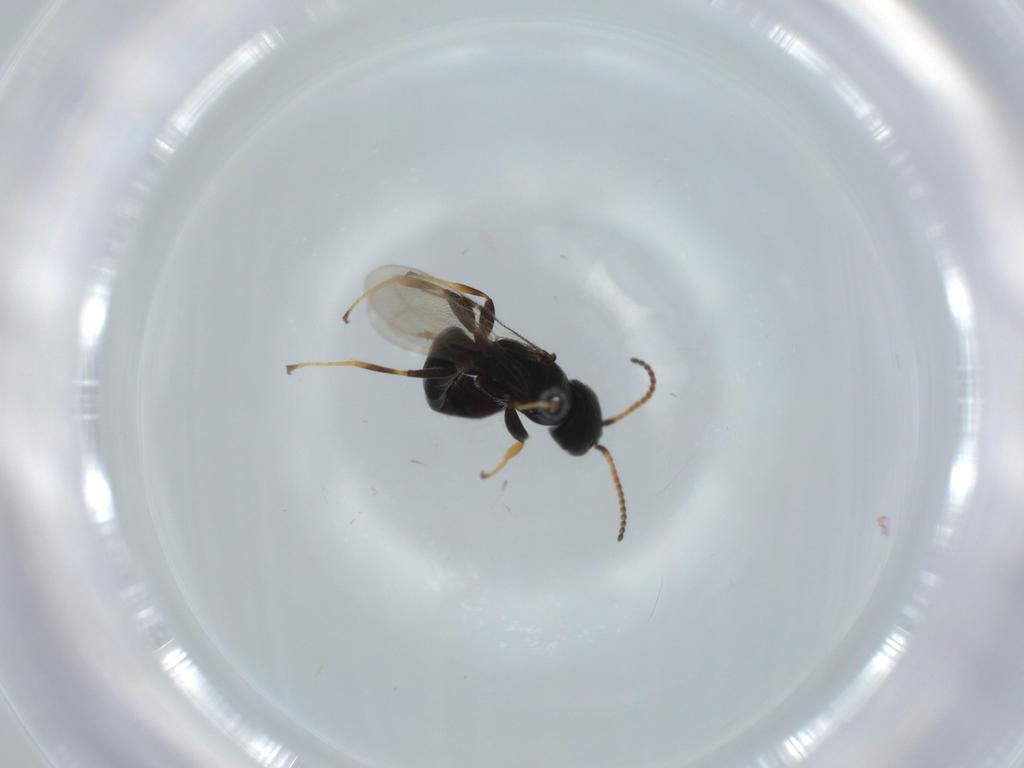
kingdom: Animalia
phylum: Arthropoda
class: Insecta
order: Hymenoptera
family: Bethylidae
